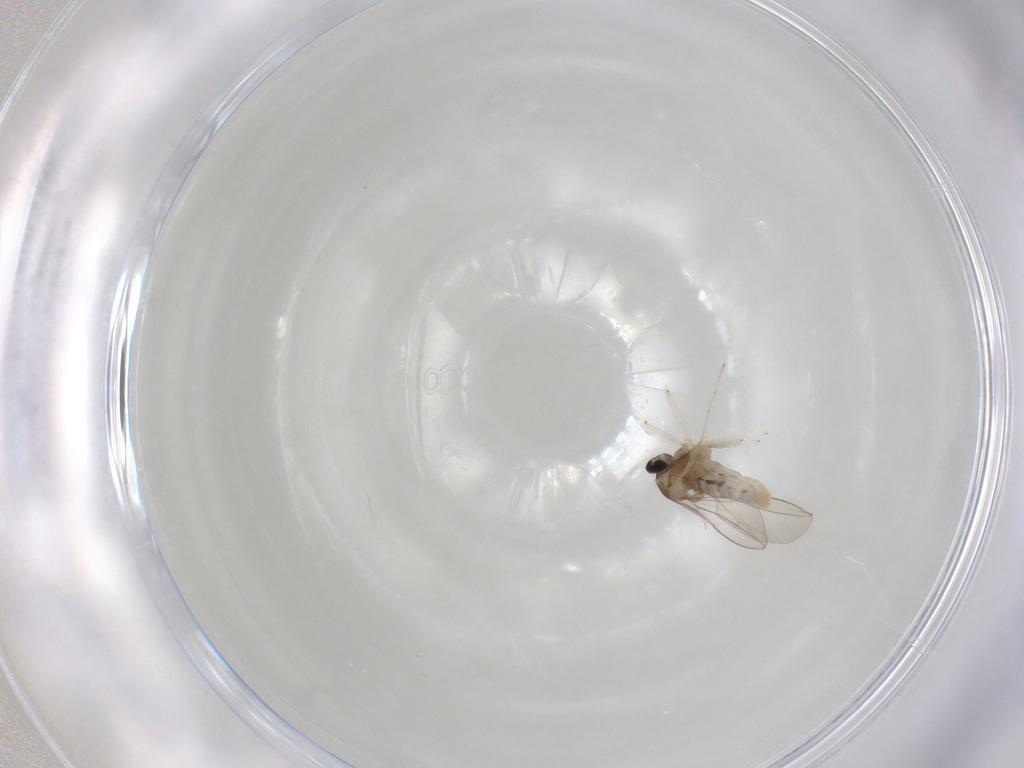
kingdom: Animalia
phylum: Arthropoda
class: Insecta
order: Diptera
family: Cecidomyiidae
